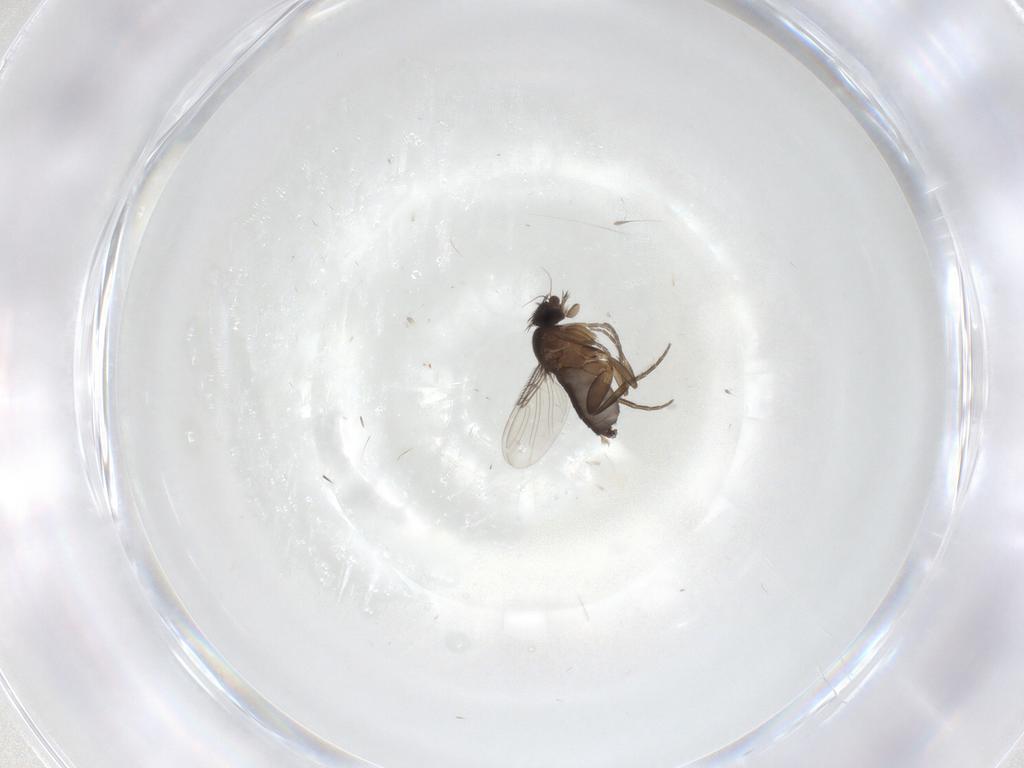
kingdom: Animalia
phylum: Arthropoda
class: Insecta
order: Diptera
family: Phoridae
